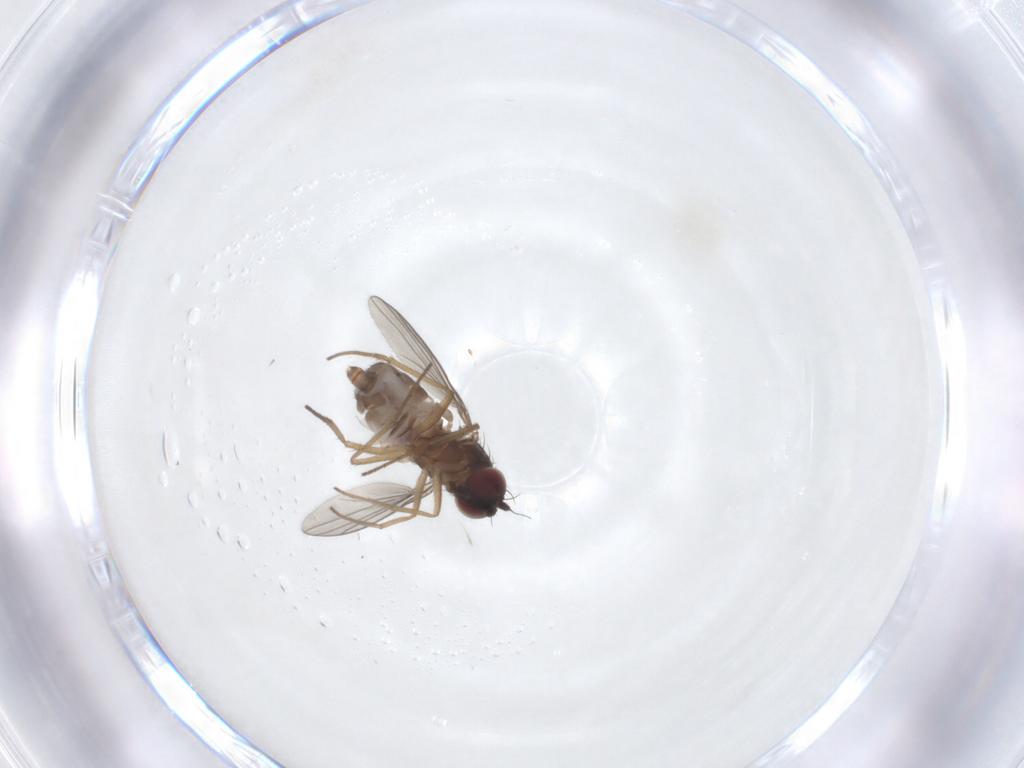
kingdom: Animalia
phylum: Arthropoda
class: Insecta
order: Diptera
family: Dolichopodidae
